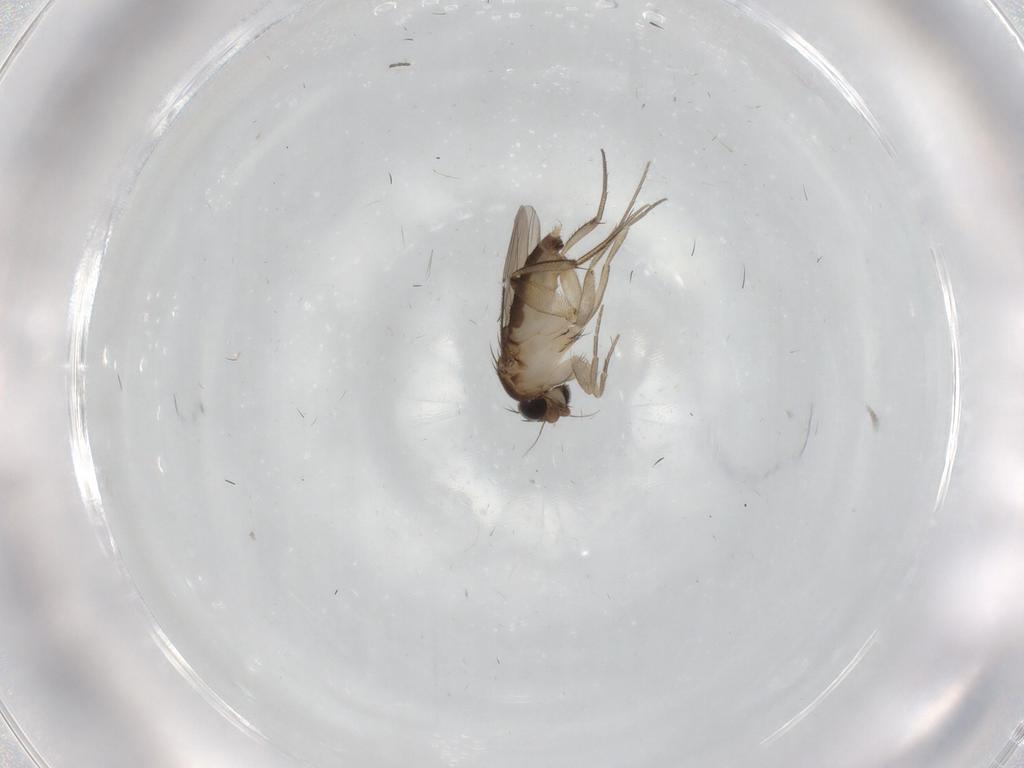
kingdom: Animalia
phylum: Arthropoda
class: Insecta
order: Diptera
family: Phoridae
